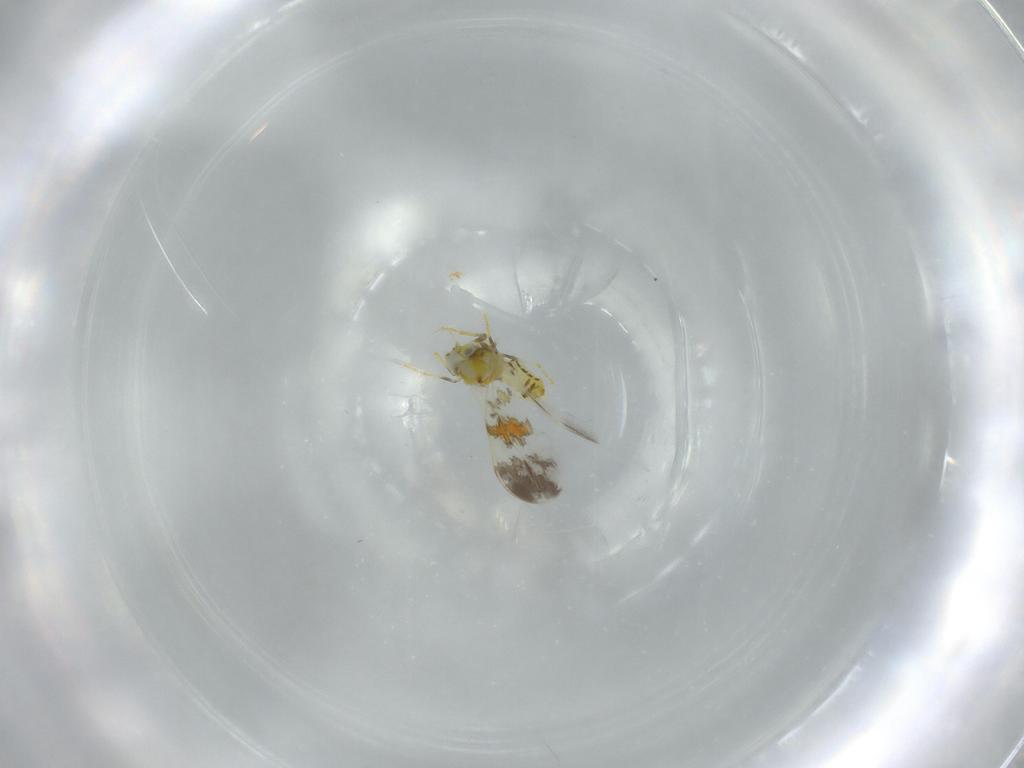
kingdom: Animalia
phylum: Arthropoda
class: Insecta
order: Hemiptera
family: Aleyrodidae
